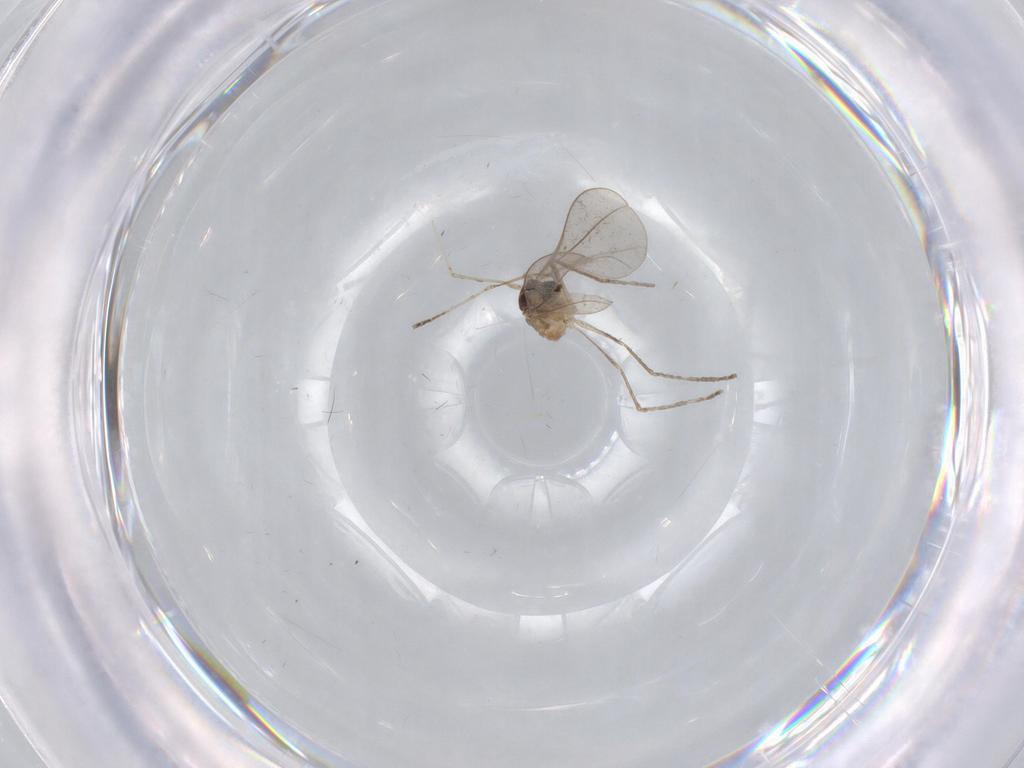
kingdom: Animalia
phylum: Arthropoda
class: Insecta
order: Diptera
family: Cecidomyiidae
